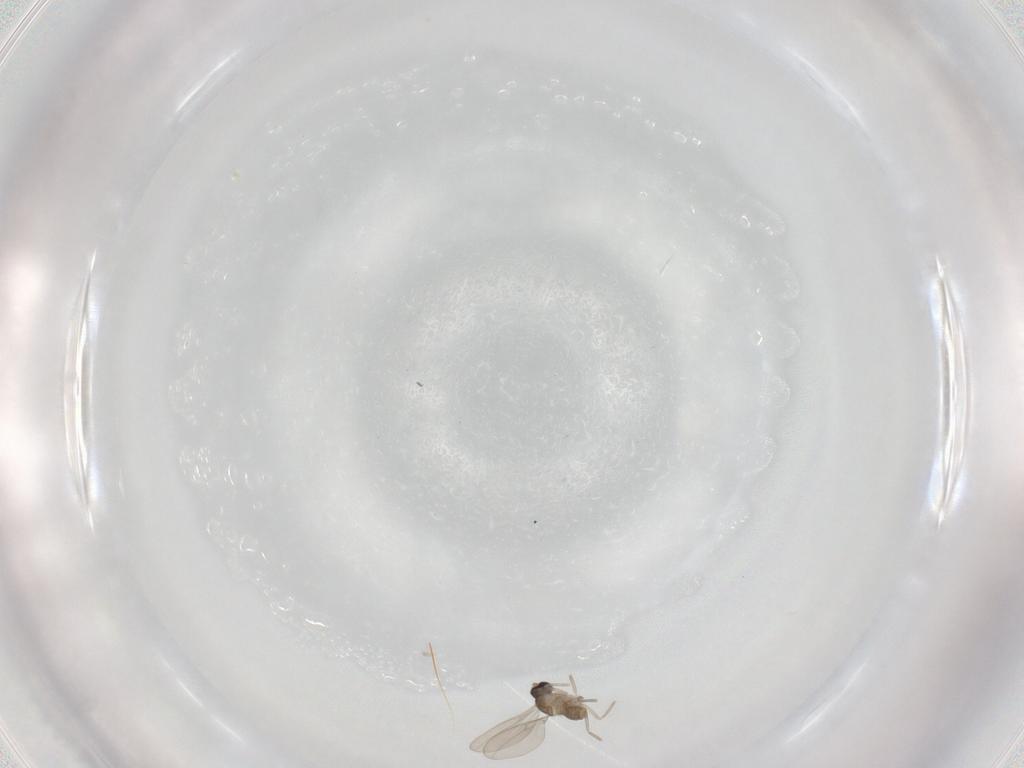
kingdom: Animalia
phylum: Arthropoda
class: Insecta
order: Diptera
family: Cecidomyiidae
